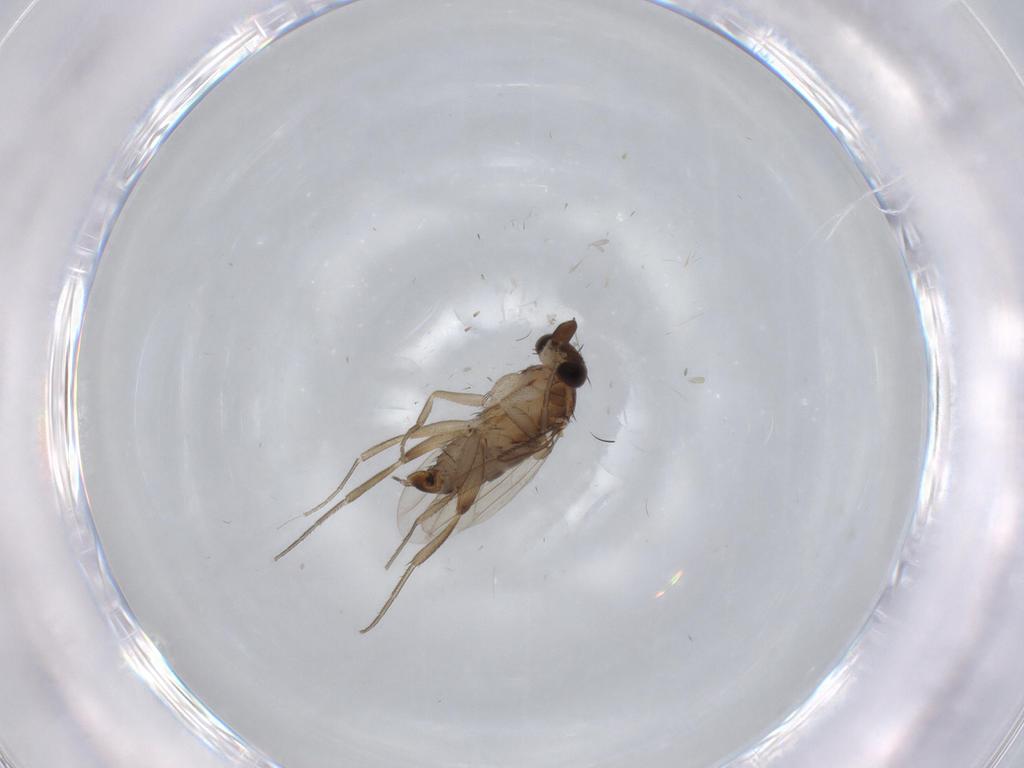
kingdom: Animalia
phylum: Arthropoda
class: Insecta
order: Diptera
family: Phoridae
